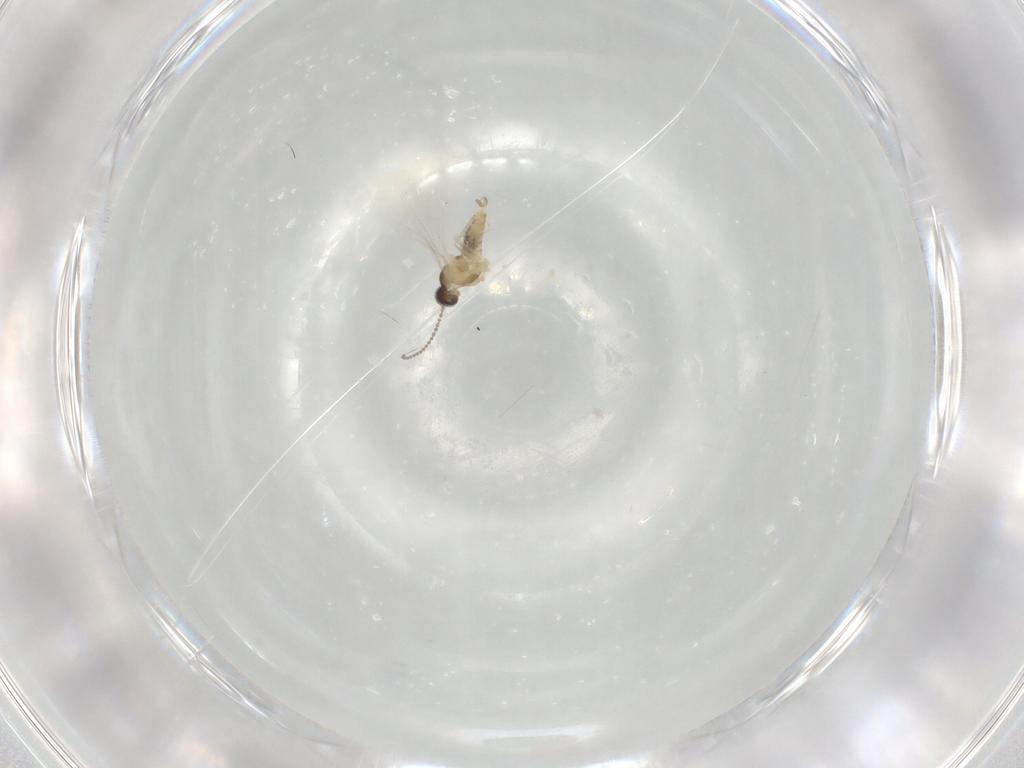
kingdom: Animalia
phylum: Arthropoda
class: Insecta
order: Diptera
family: Cecidomyiidae
